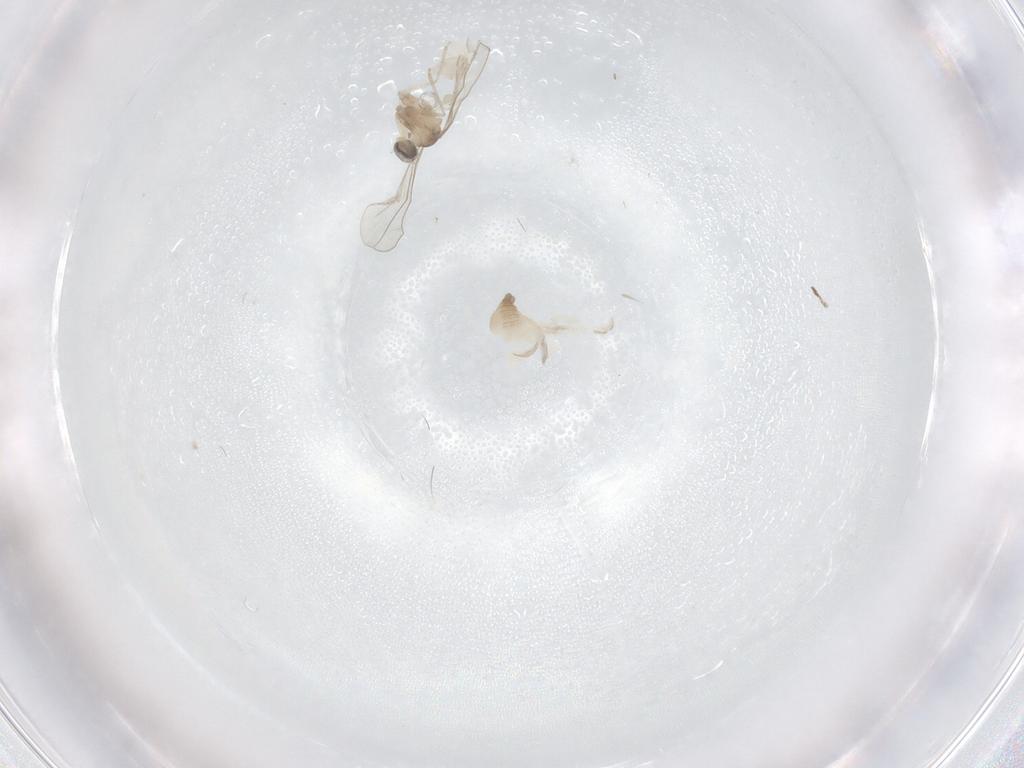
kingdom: Animalia
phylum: Arthropoda
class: Insecta
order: Diptera
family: Cecidomyiidae
